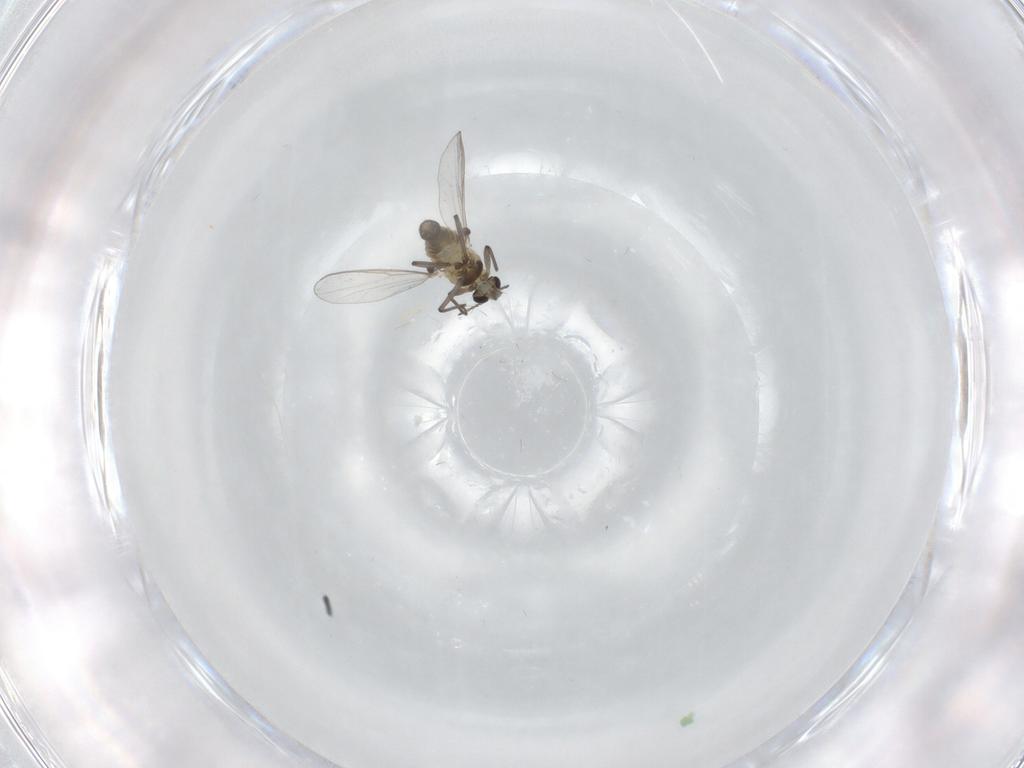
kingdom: Animalia
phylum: Arthropoda
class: Insecta
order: Diptera
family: Chironomidae
